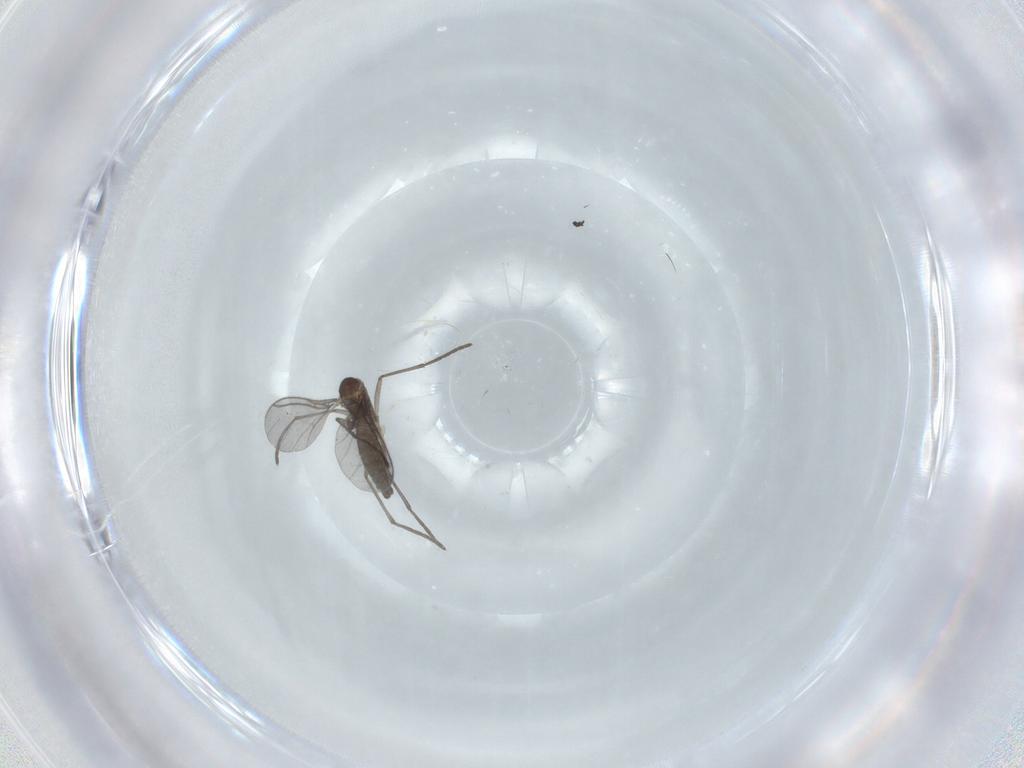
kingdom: Animalia
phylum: Arthropoda
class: Insecta
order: Diptera
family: Sciaridae
